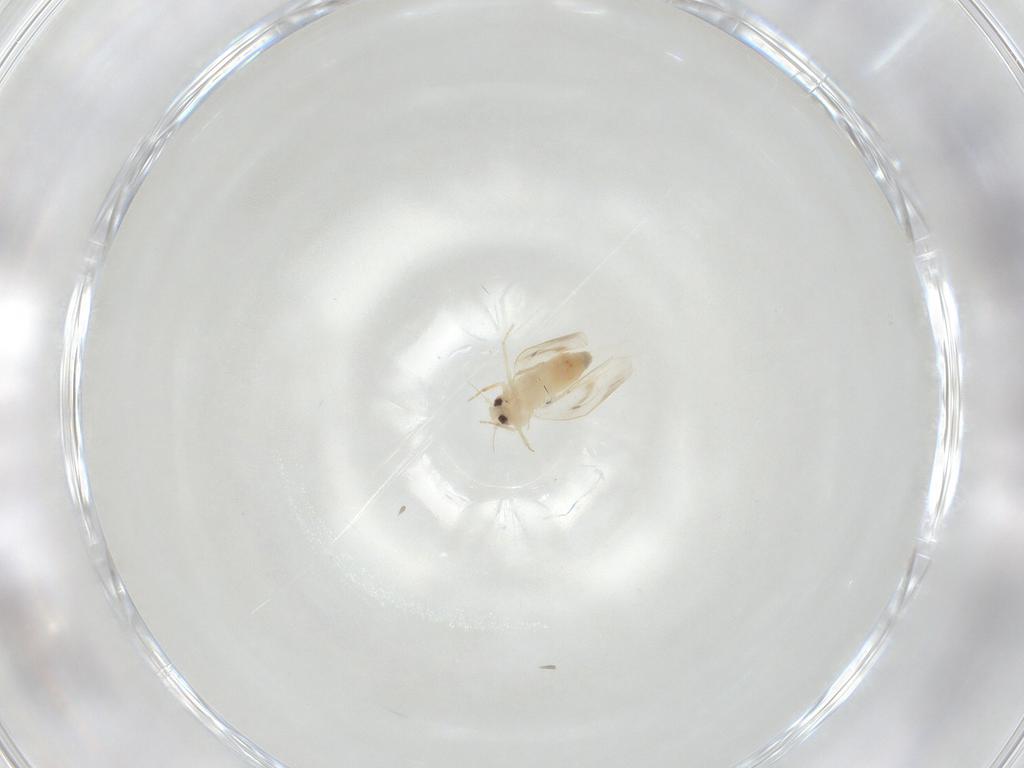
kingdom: Animalia
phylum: Arthropoda
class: Insecta
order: Hemiptera
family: Aleyrodidae
